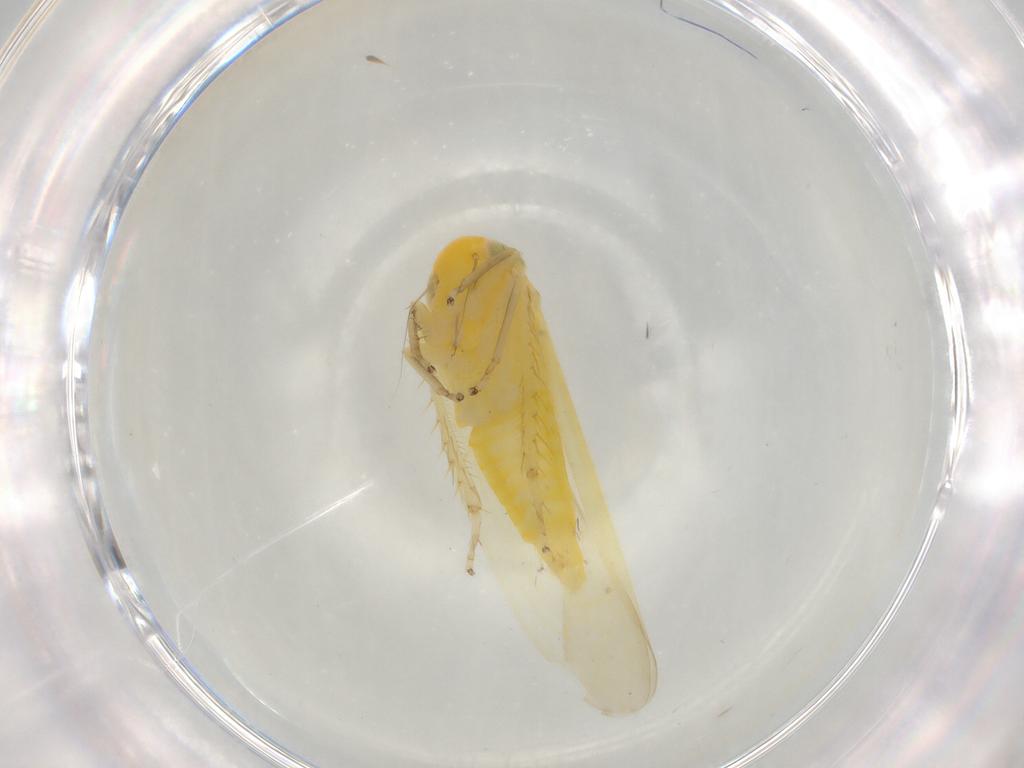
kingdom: Animalia
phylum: Arthropoda
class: Insecta
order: Hemiptera
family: Cicadellidae
